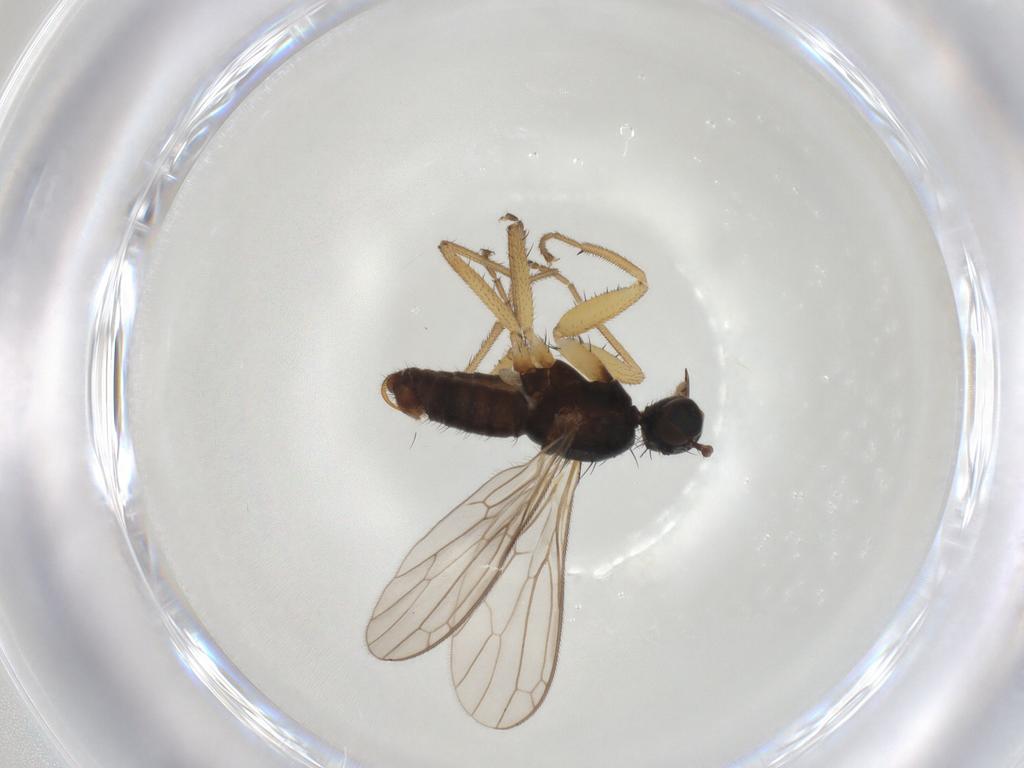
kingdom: Animalia
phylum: Arthropoda
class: Insecta
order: Diptera
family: Empididae
